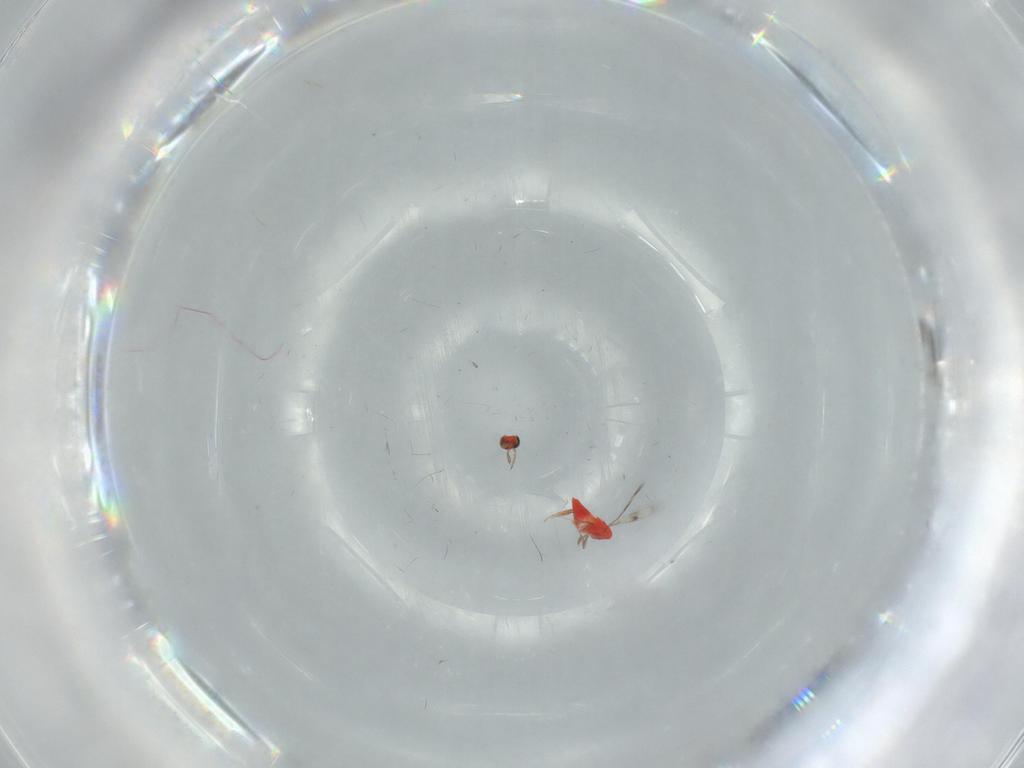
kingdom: Animalia
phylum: Arthropoda
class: Insecta
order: Hymenoptera
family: Trichogrammatidae
